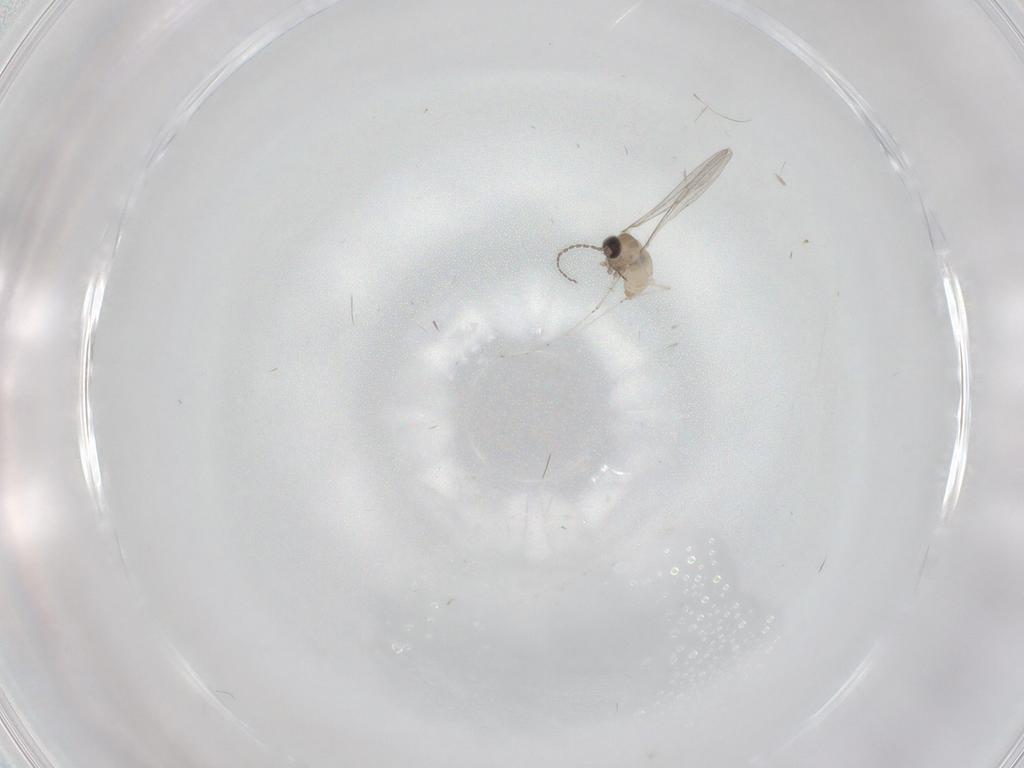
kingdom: Animalia
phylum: Arthropoda
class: Insecta
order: Diptera
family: Cecidomyiidae
